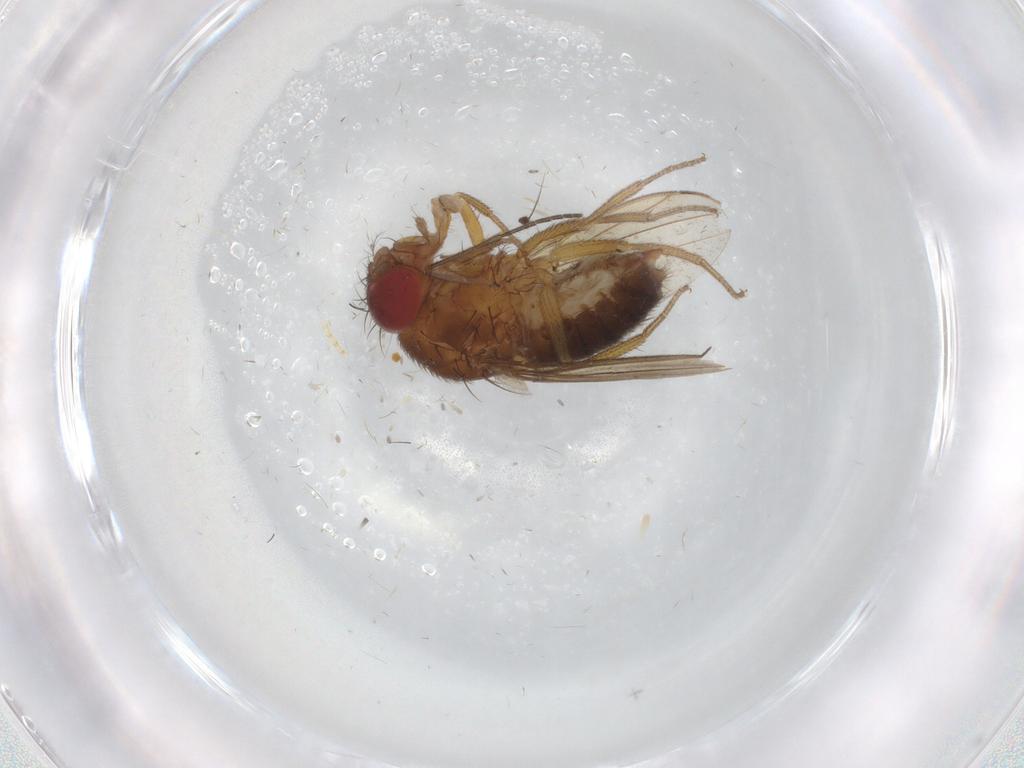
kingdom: Animalia
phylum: Arthropoda
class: Insecta
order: Diptera
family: Drosophilidae
